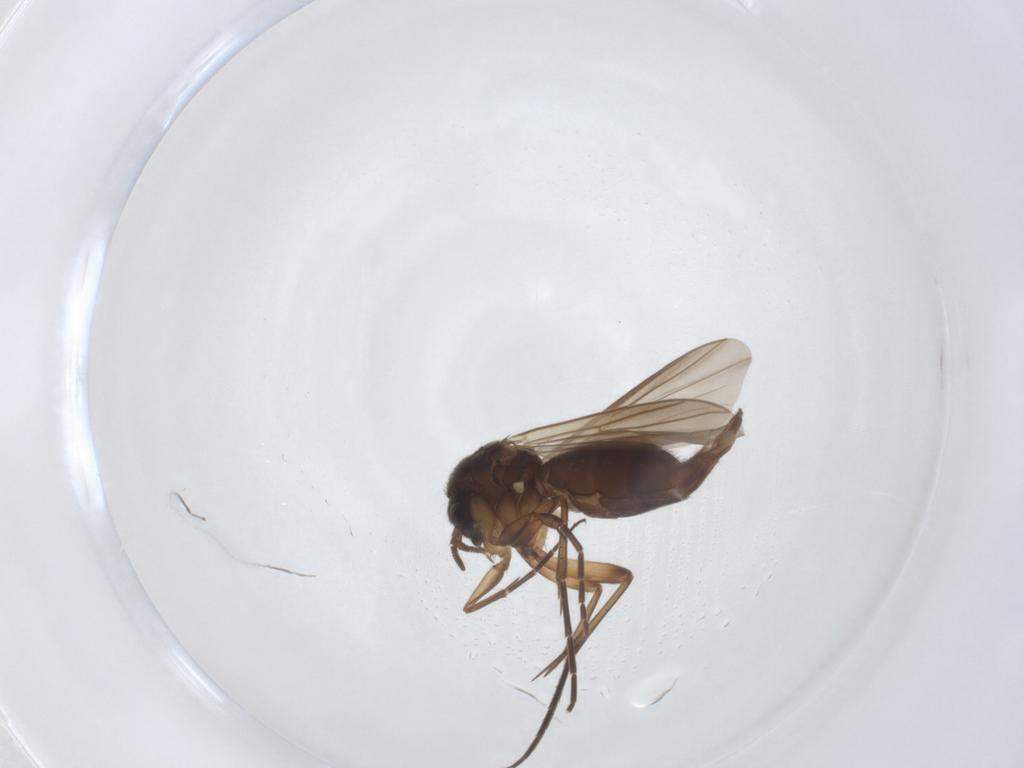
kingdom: Animalia
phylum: Arthropoda
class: Insecta
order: Diptera
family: Mycetophilidae
